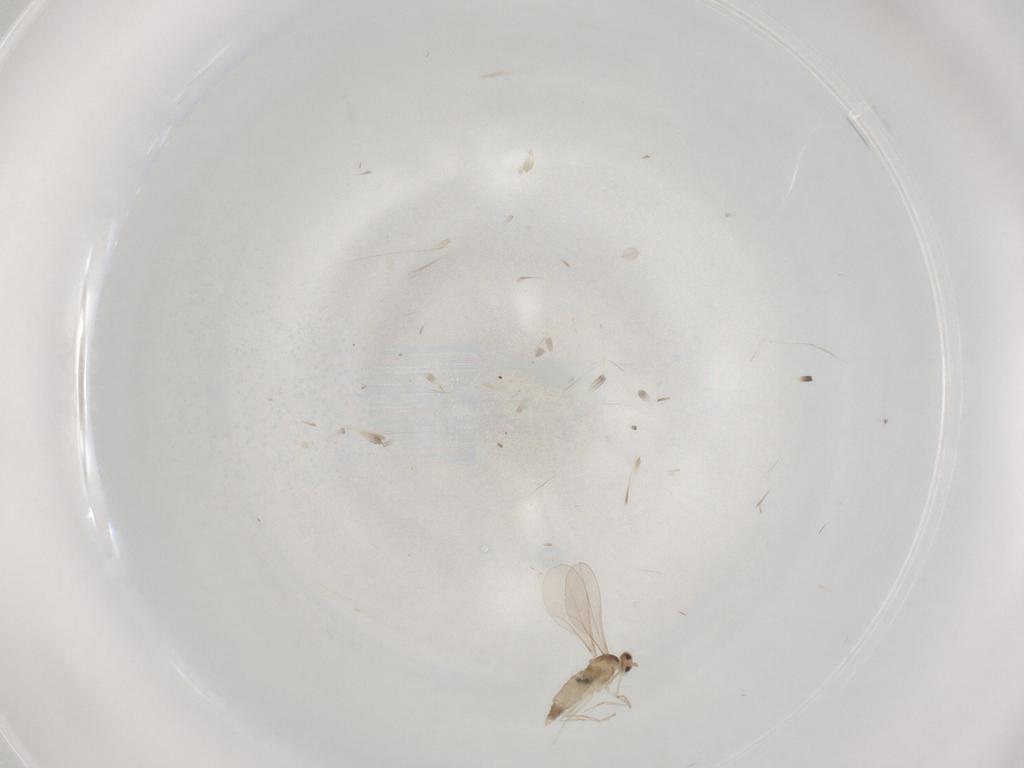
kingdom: Animalia
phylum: Arthropoda
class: Insecta
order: Diptera
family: Cecidomyiidae
